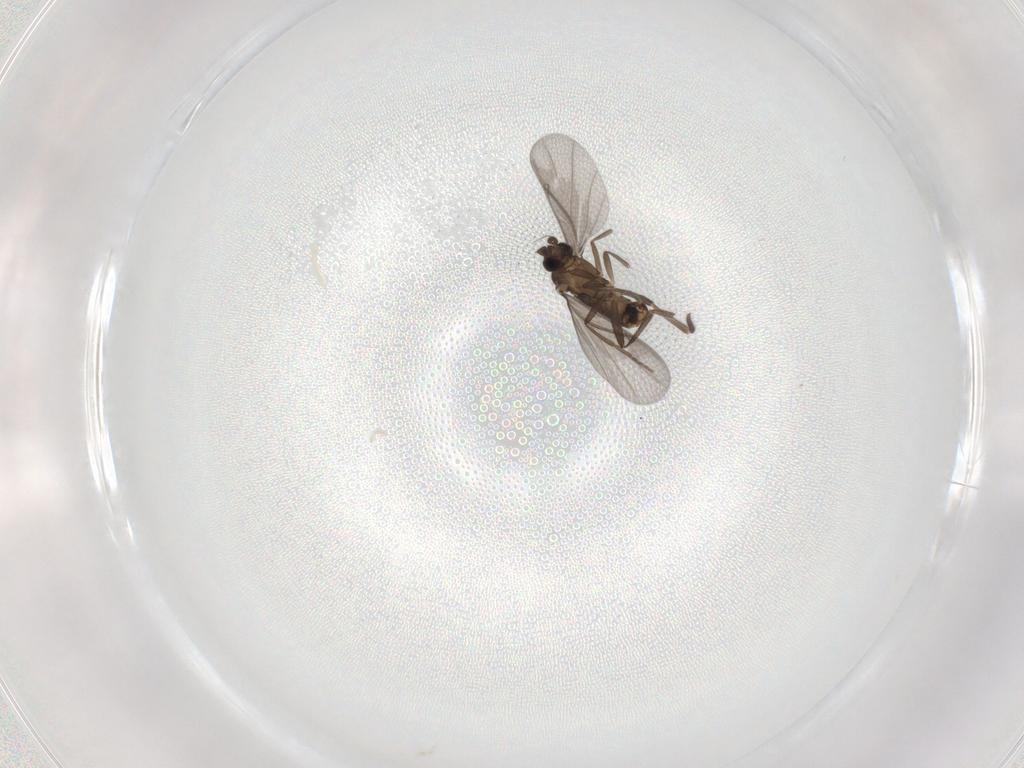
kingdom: Animalia
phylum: Arthropoda
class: Insecta
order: Diptera
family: Phoridae
